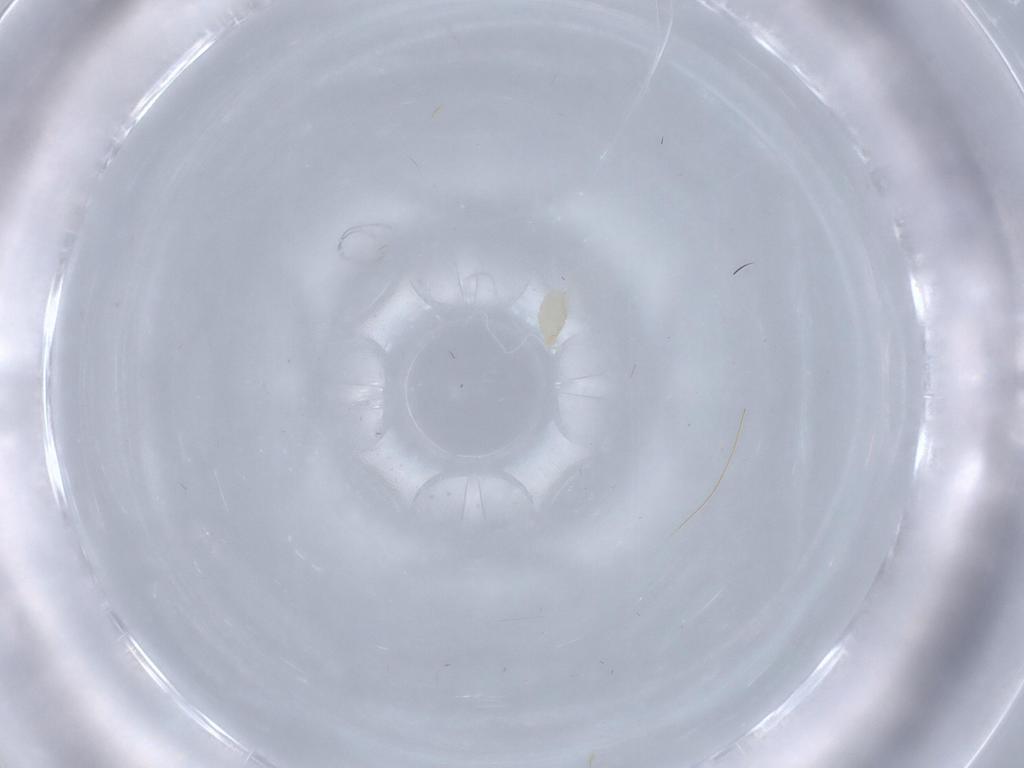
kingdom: Animalia
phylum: Arthropoda
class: Arachnida
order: Trombidiformes
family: Microtrombidiidae
